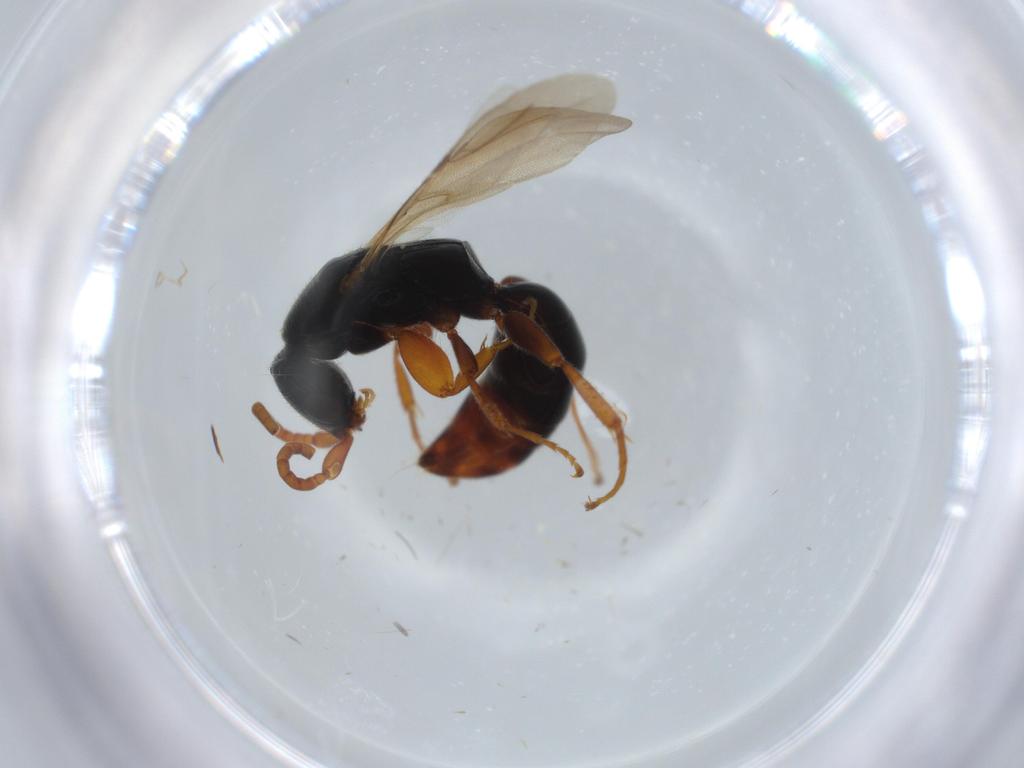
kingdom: Animalia
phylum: Arthropoda
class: Insecta
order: Hymenoptera
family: Bethylidae
